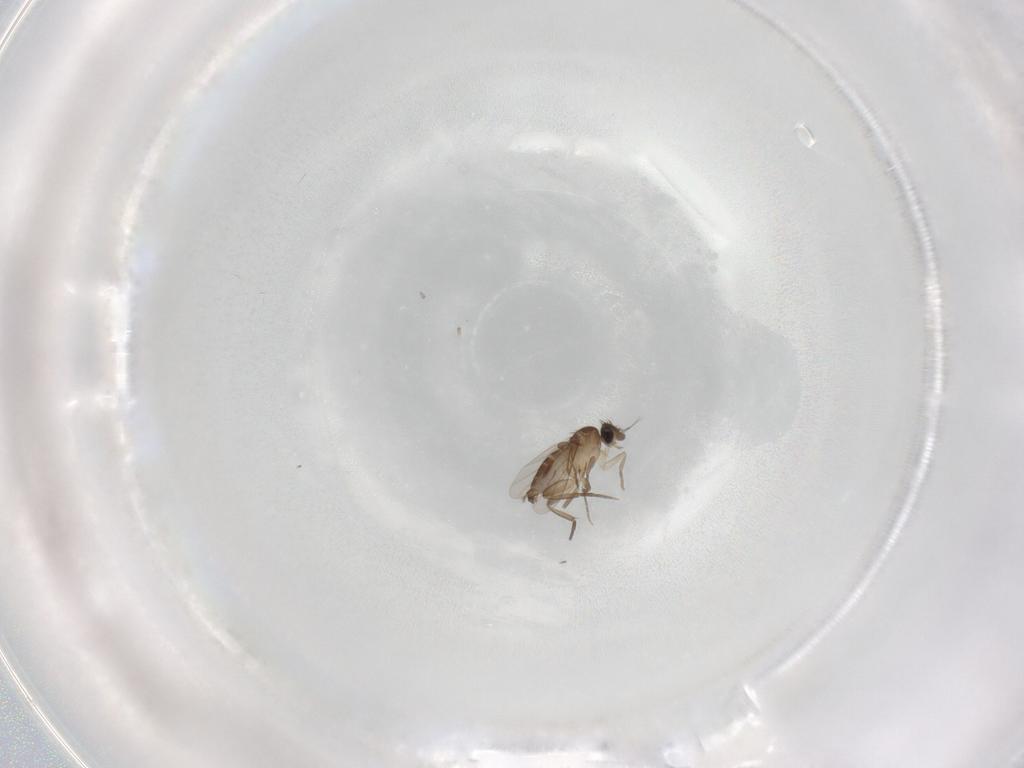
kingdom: Animalia
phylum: Arthropoda
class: Insecta
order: Diptera
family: Phoridae
